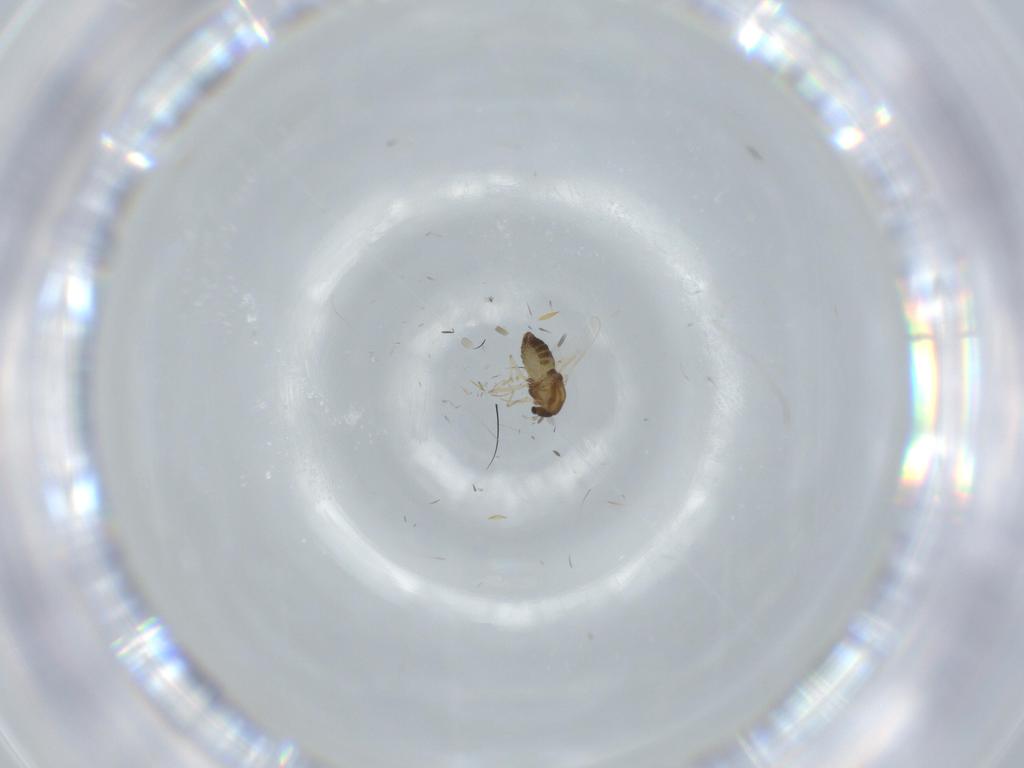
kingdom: Animalia
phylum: Arthropoda
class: Insecta
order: Diptera
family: Chironomidae
